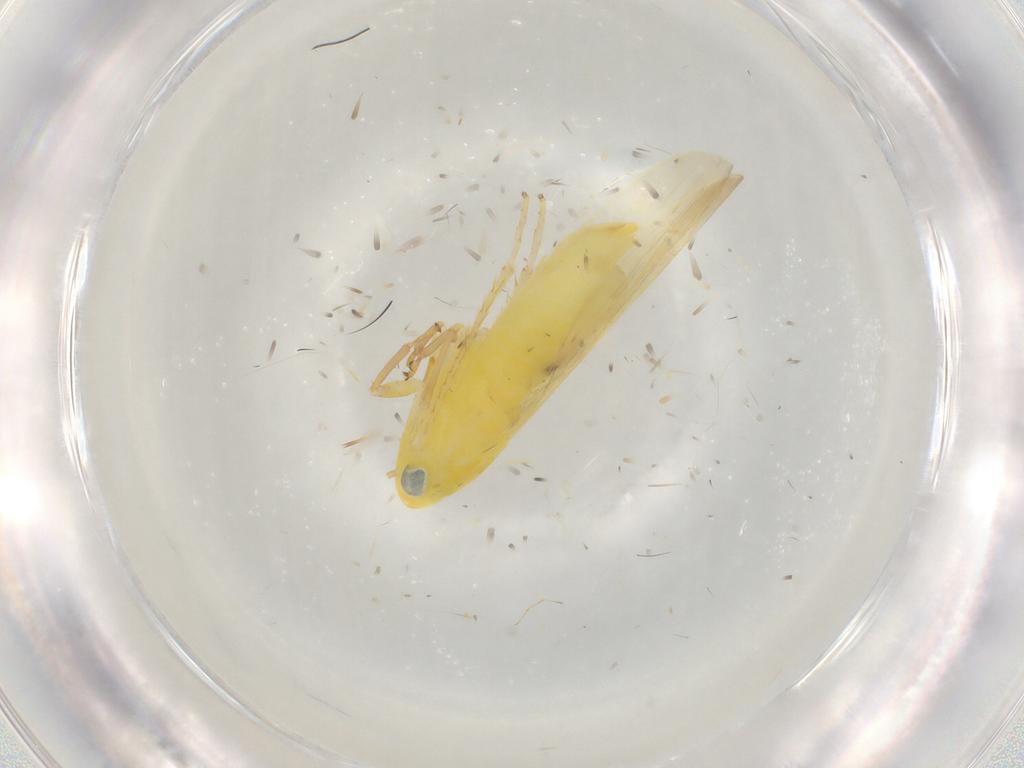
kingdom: Animalia
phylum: Arthropoda
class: Insecta
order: Hemiptera
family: Cicadellidae
